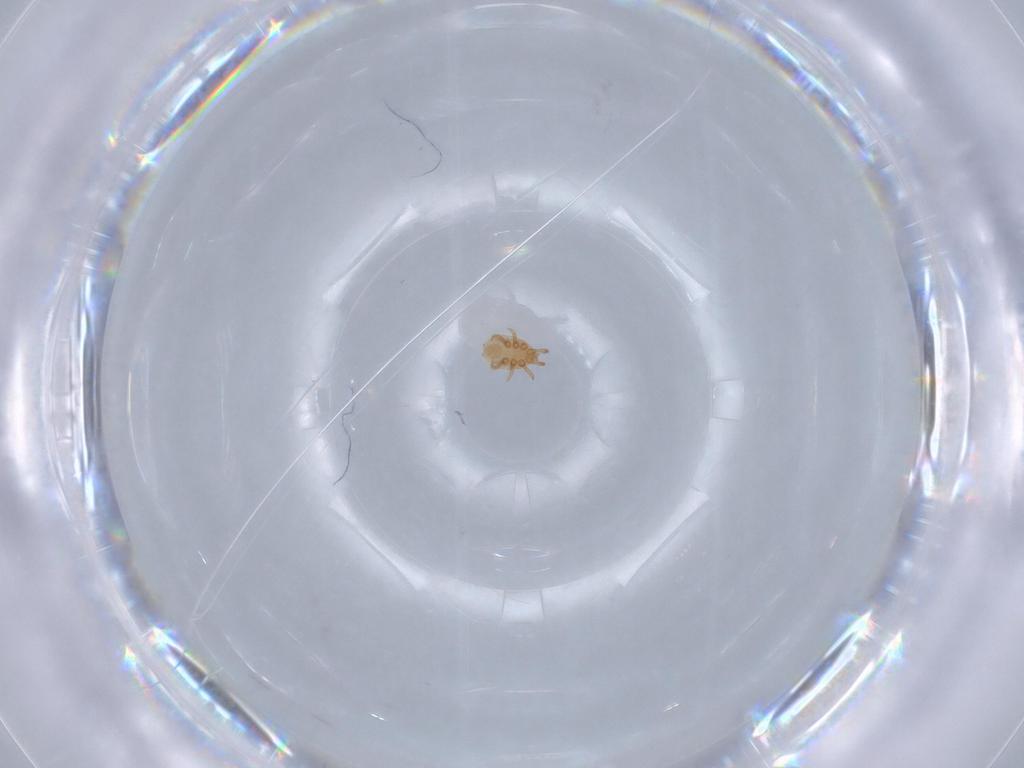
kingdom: Animalia
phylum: Arthropoda
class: Arachnida
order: Mesostigmata
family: Dinychidae
